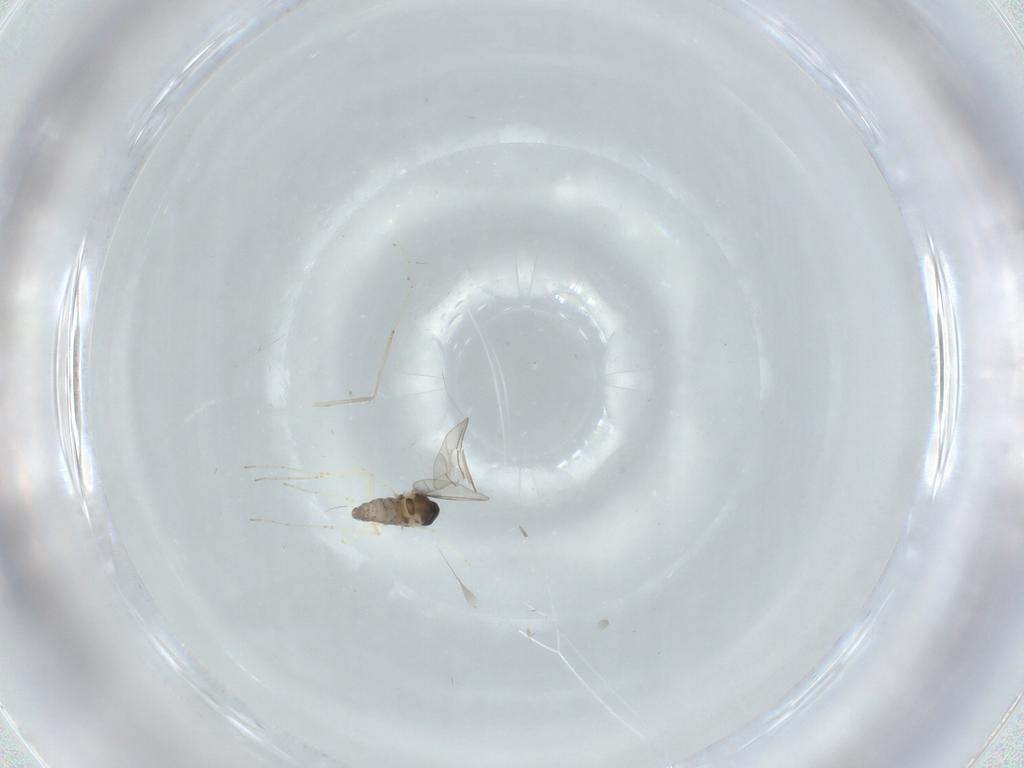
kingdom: Animalia
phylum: Arthropoda
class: Insecta
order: Diptera
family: Cecidomyiidae
